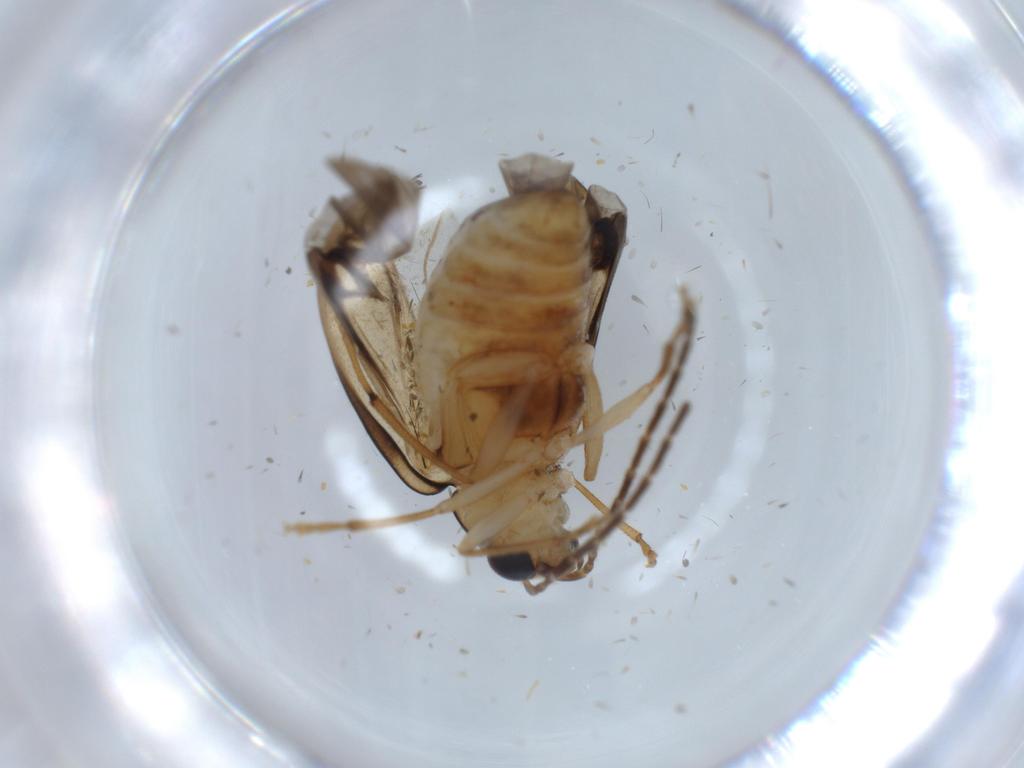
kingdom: Animalia
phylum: Arthropoda
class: Insecta
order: Coleoptera
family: Chrysomelidae
